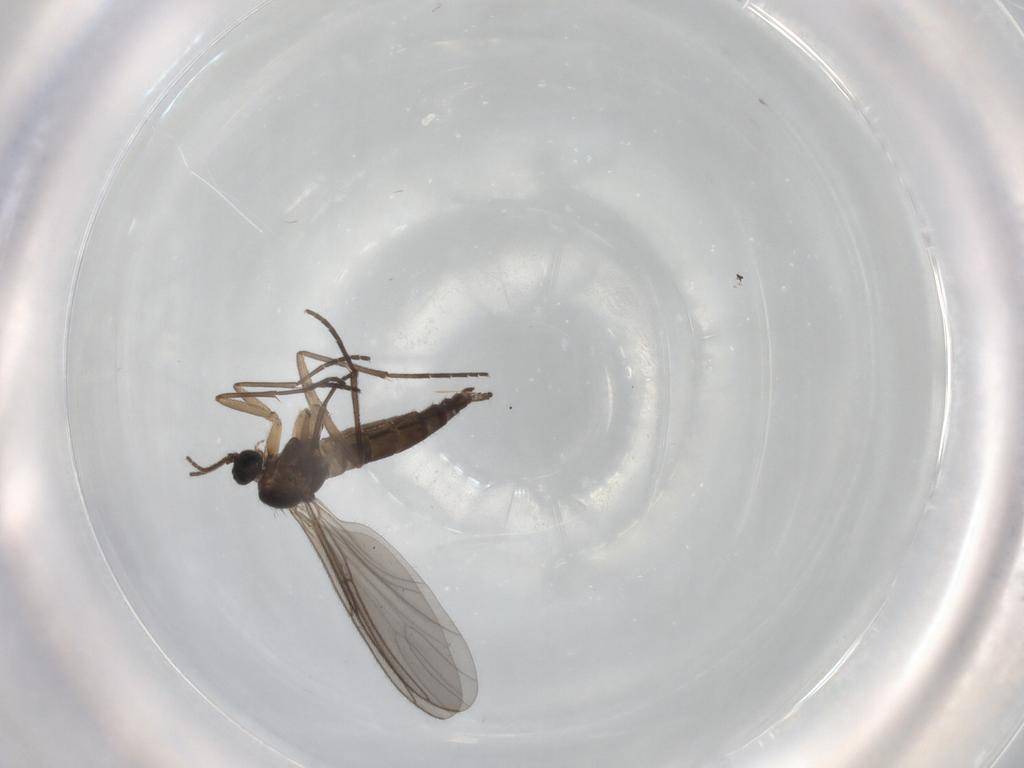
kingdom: Animalia
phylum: Arthropoda
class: Insecta
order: Diptera
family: Sciaridae
